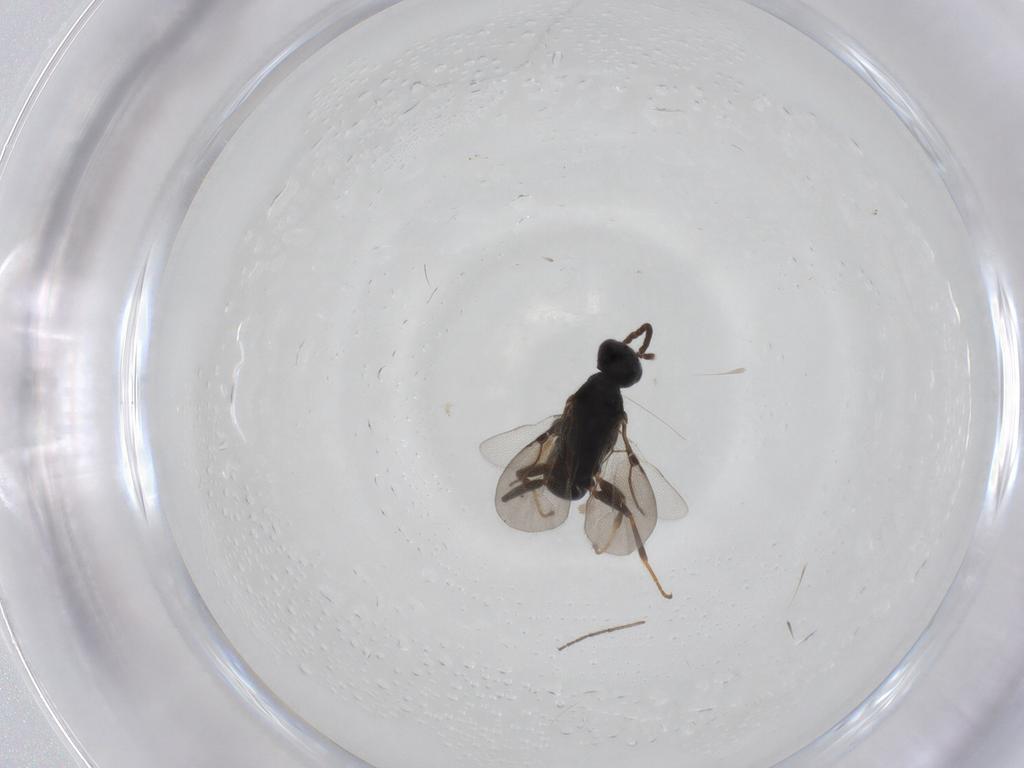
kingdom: Animalia
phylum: Arthropoda
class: Insecta
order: Hymenoptera
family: Bethylidae
